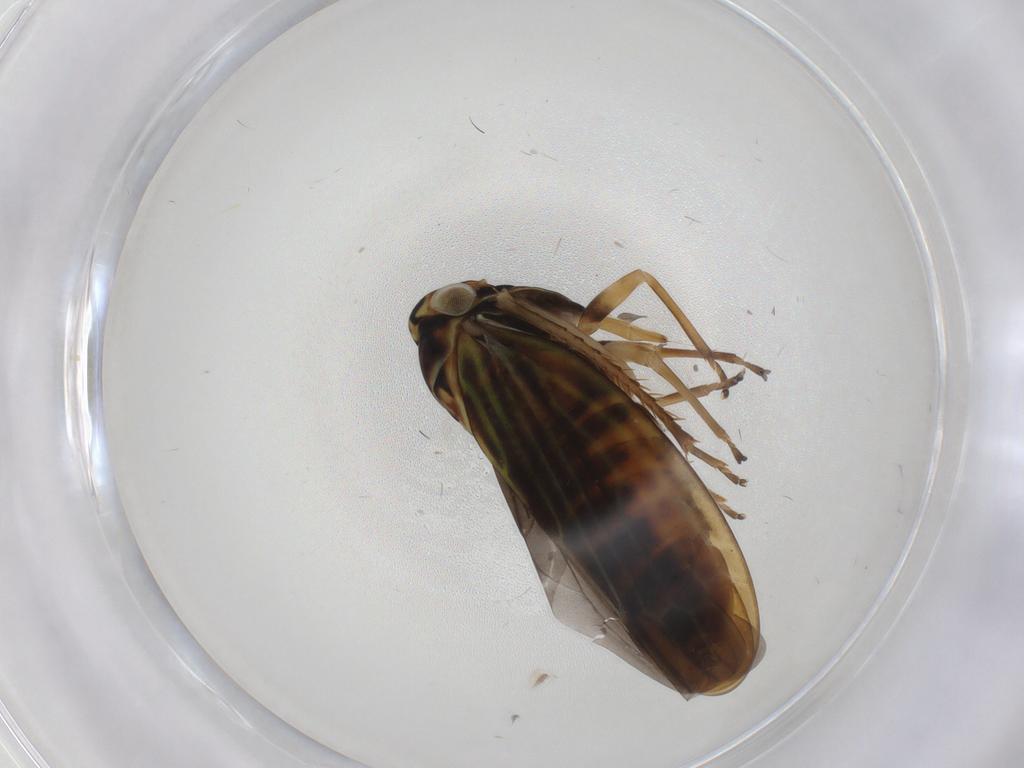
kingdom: Animalia
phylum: Arthropoda
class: Insecta
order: Hemiptera
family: Cicadellidae
